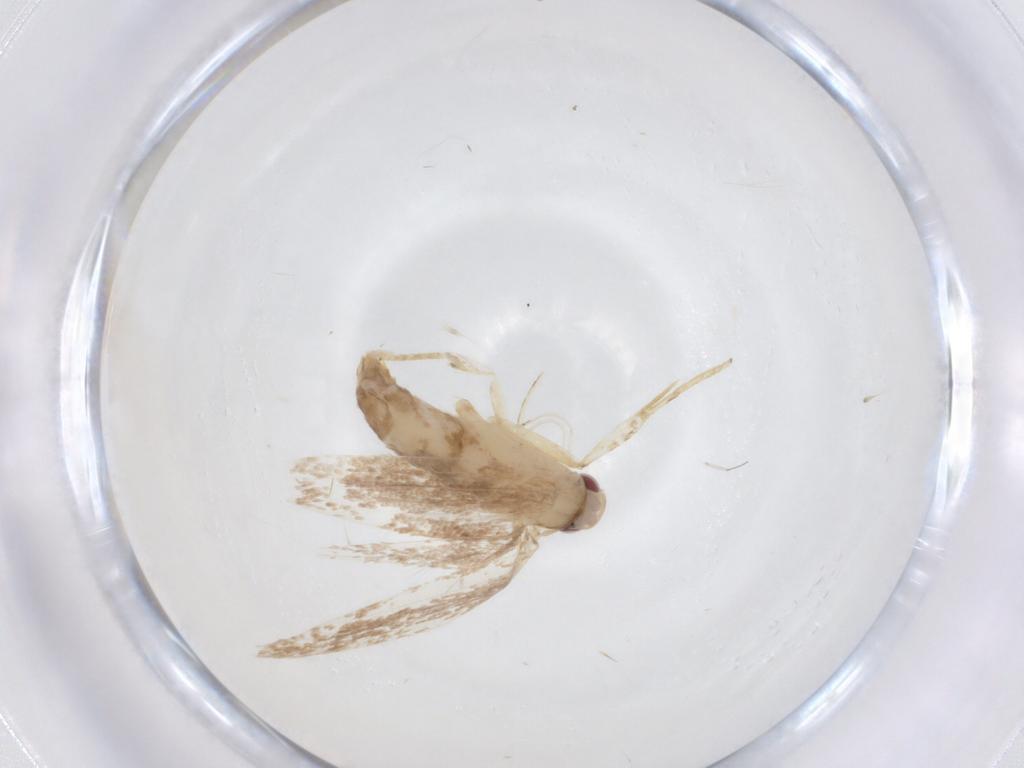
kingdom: Animalia
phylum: Arthropoda
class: Insecta
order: Lepidoptera
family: Cosmopterigidae
